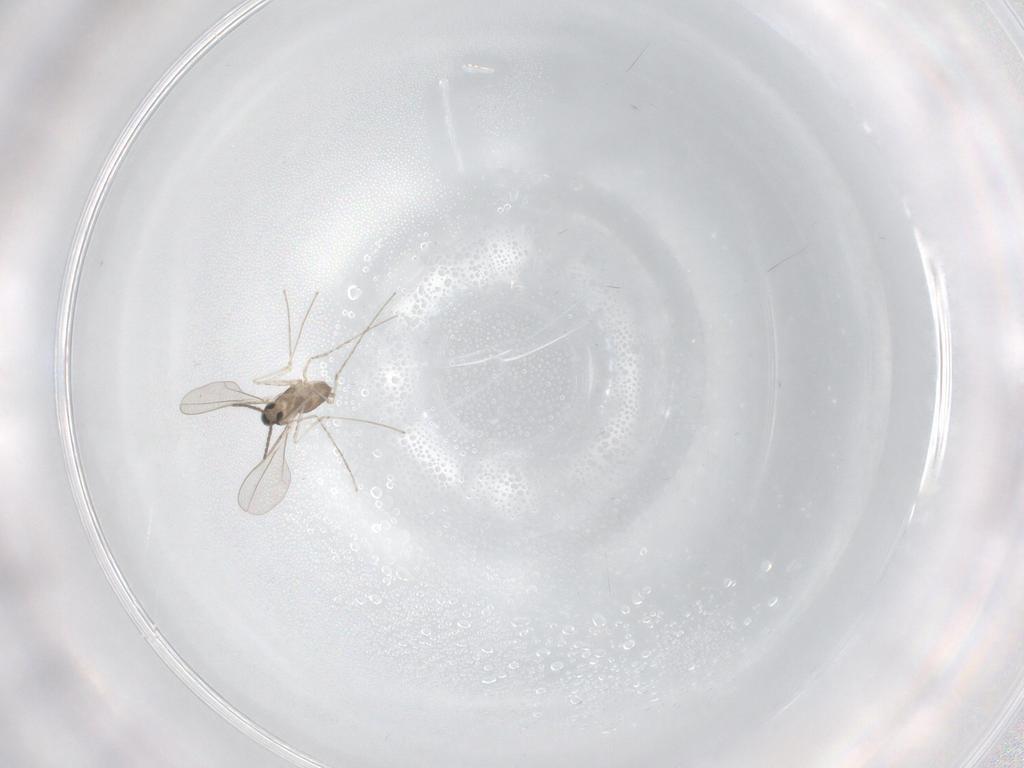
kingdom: Animalia
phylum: Arthropoda
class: Insecta
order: Diptera
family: Cecidomyiidae
